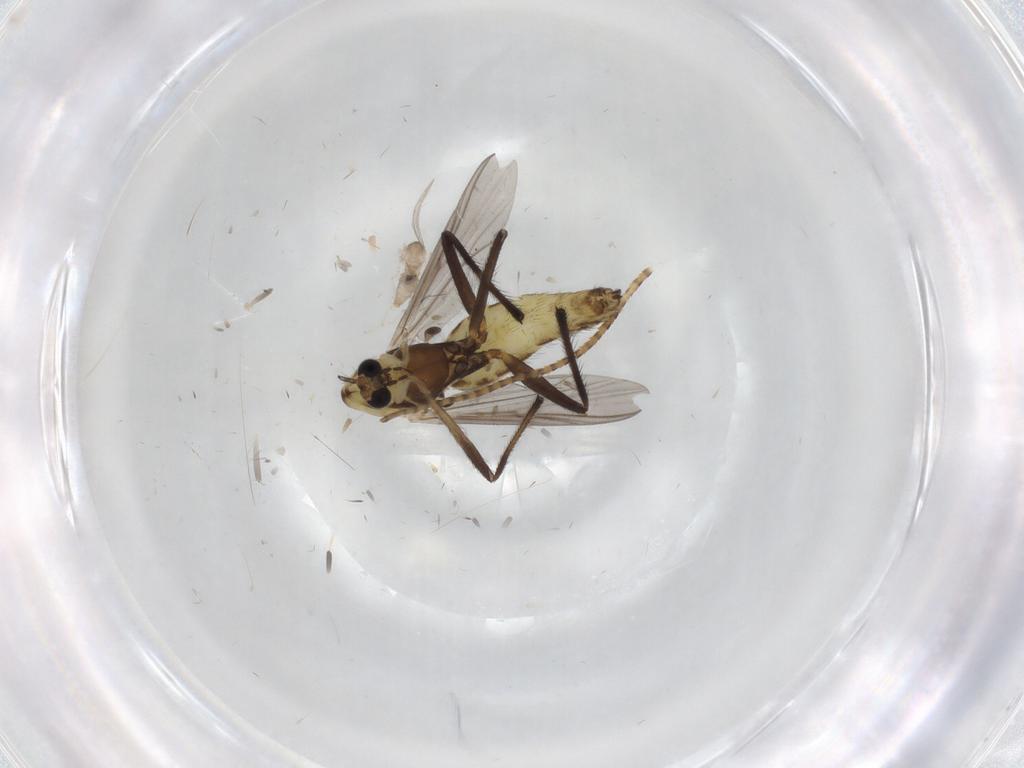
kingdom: Animalia
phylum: Arthropoda
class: Insecta
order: Diptera
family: Chironomidae
